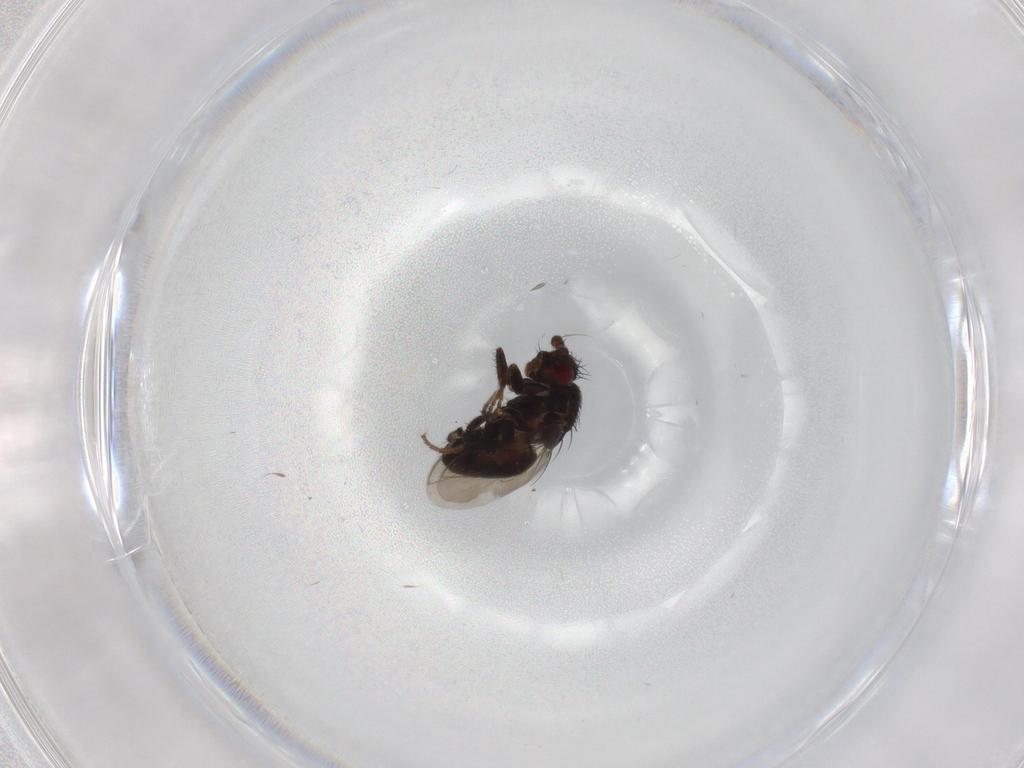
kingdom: Animalia
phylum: Arthropoda
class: Insecta
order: Diptera
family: Sphaeroceridae
